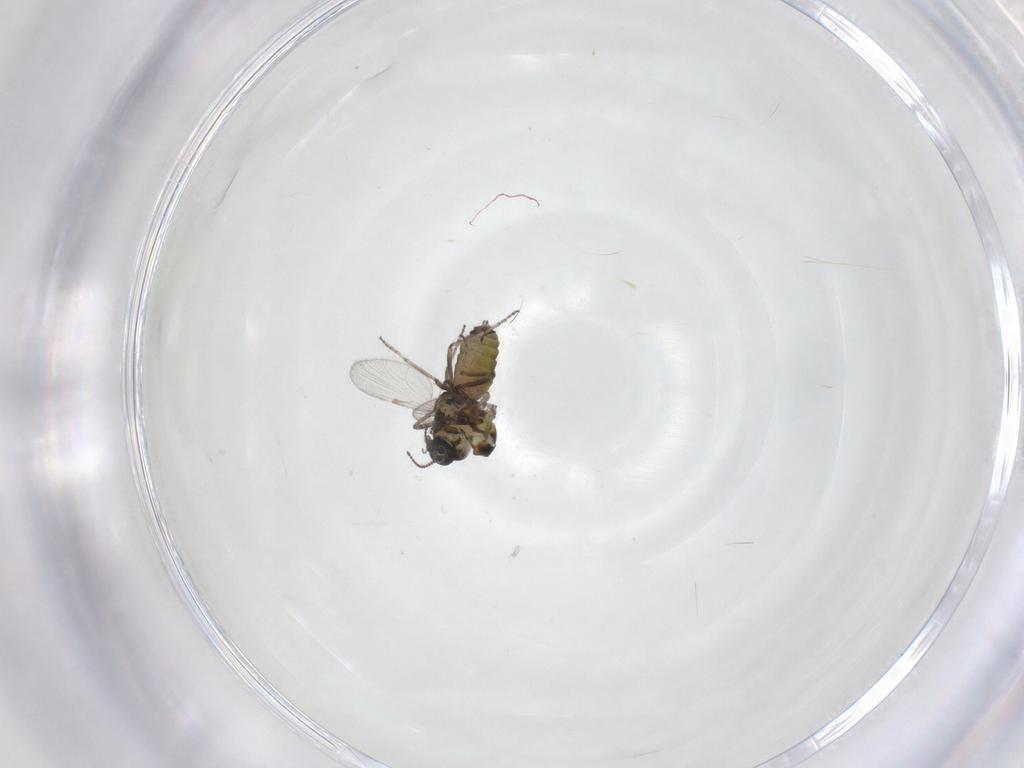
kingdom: Animalia
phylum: Arthropoda
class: Insecta
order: Diptera
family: Ceratopogonidae
